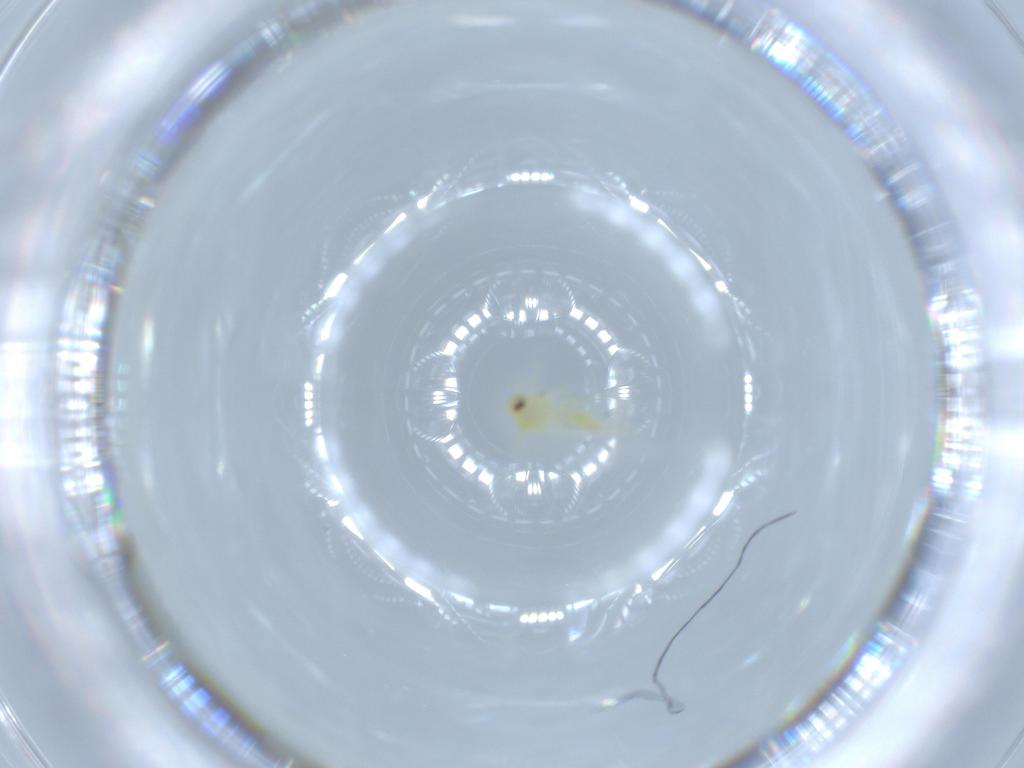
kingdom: Animalia
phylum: Arthropoda
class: Insecta
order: Hemiptera
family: Aleyrodidae
